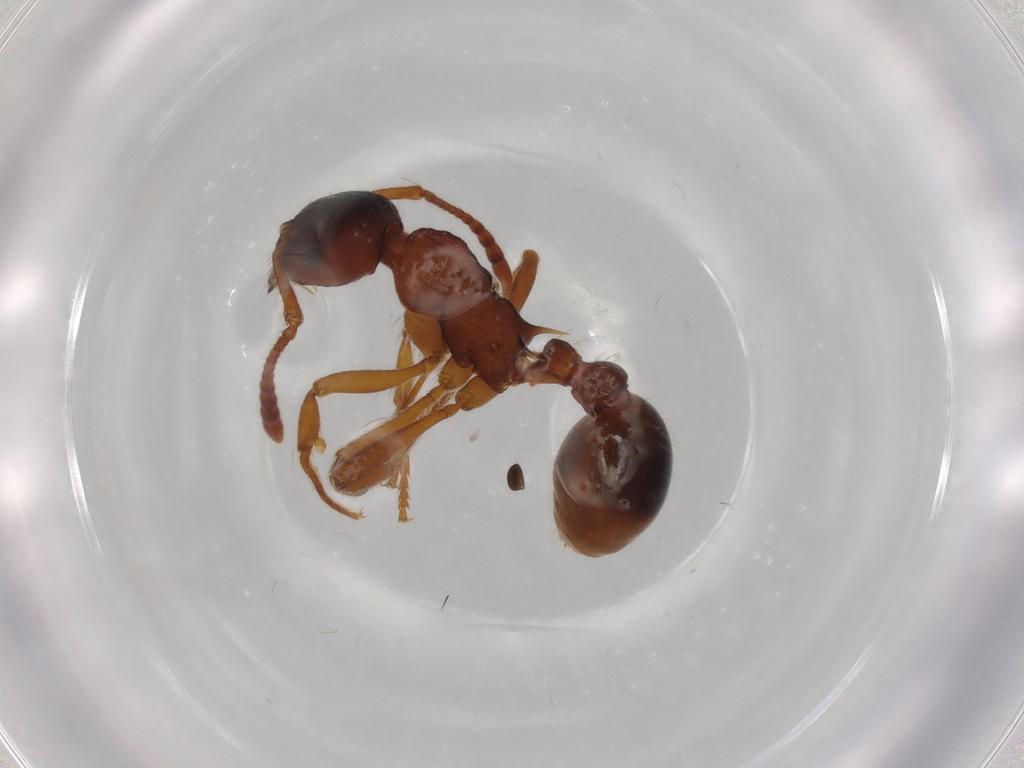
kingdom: Animalia
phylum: Arthropoda
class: Insecta
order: Hymenoptera
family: Formicidae
